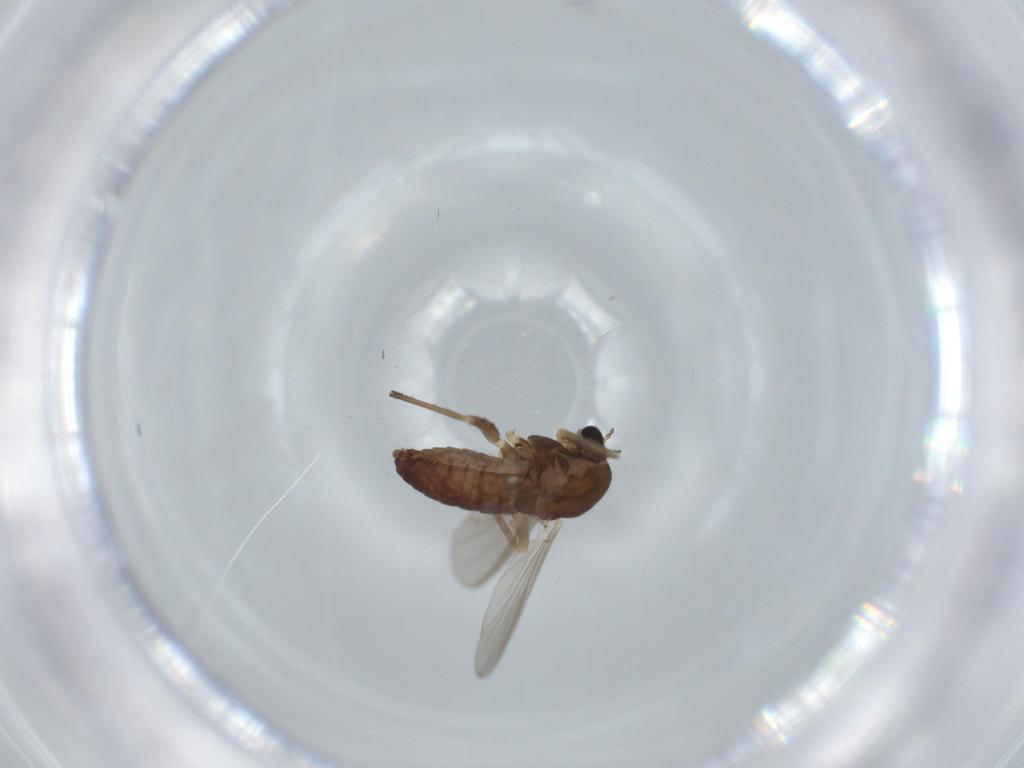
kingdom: Animalia
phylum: Arthropoda
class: Insecta
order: Diptera
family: Chironomidae
